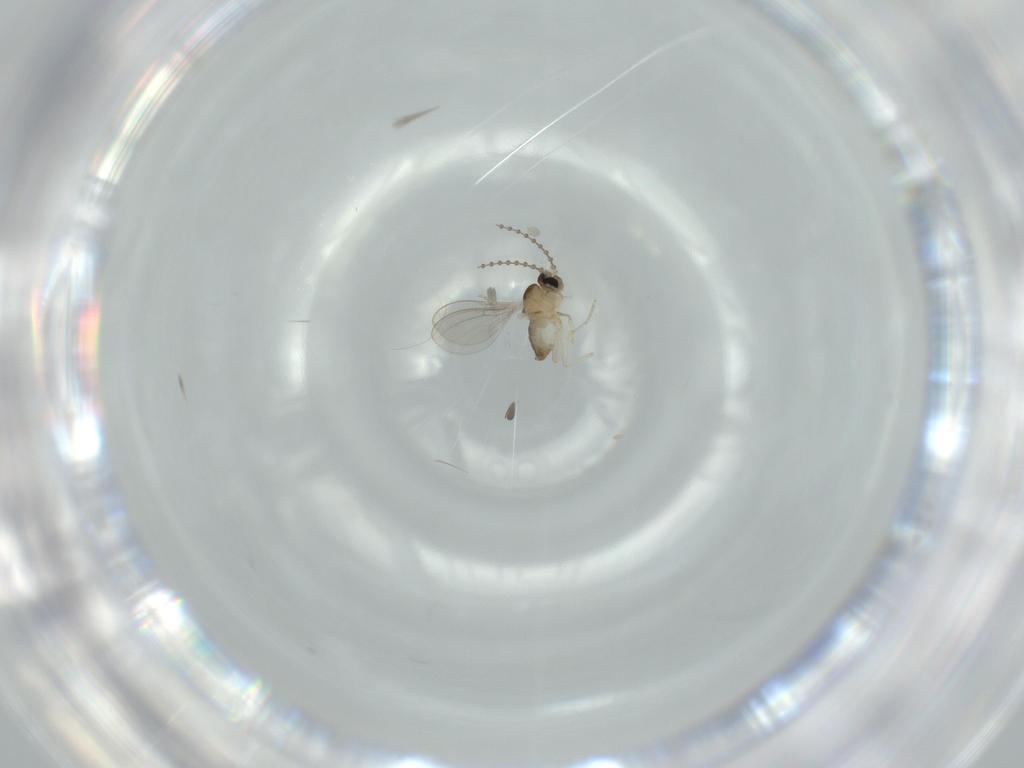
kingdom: Animalia
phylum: Arthropoda
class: Insecta
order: Diptera
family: Cecidomyiidae
